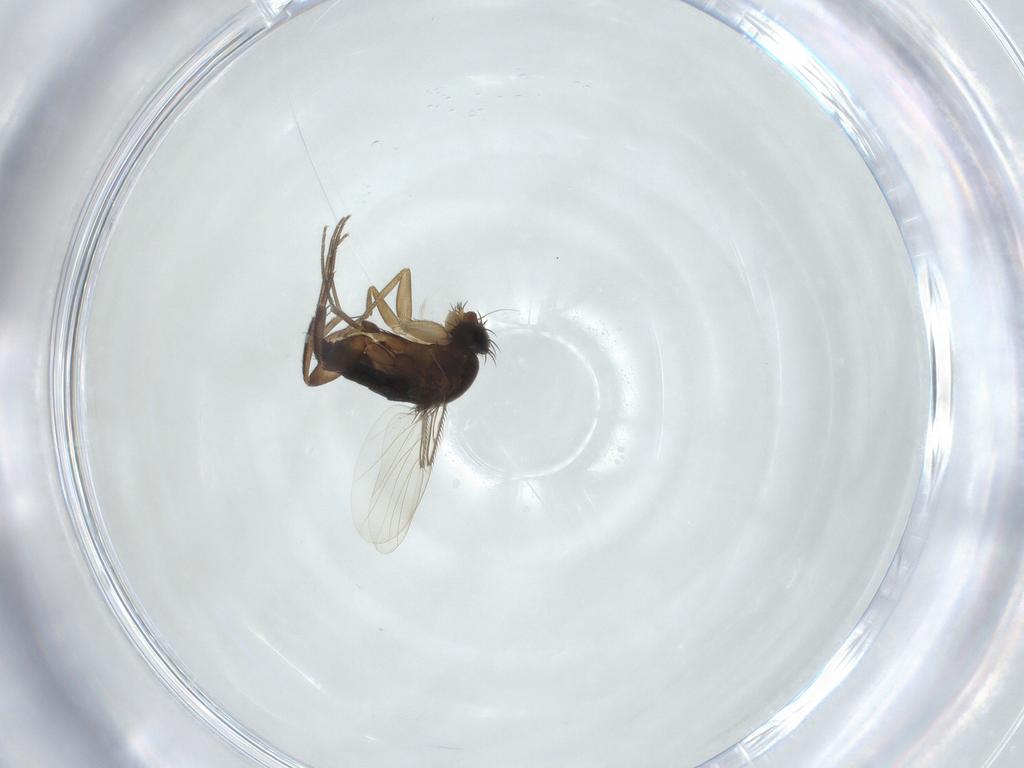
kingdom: Animalia
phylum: Arthropoda
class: Insecta
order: Diptera
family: Phoridae
